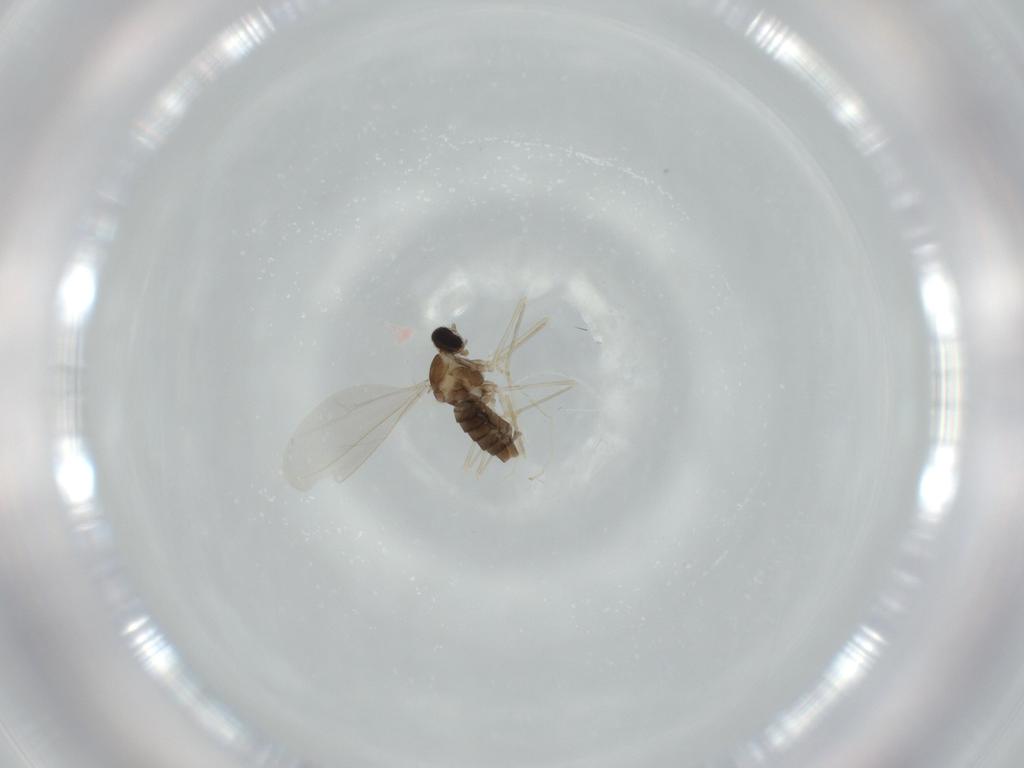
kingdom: Animalia
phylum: Arthropoda
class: Insecta
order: Diptera
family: Cecidomyiidae
